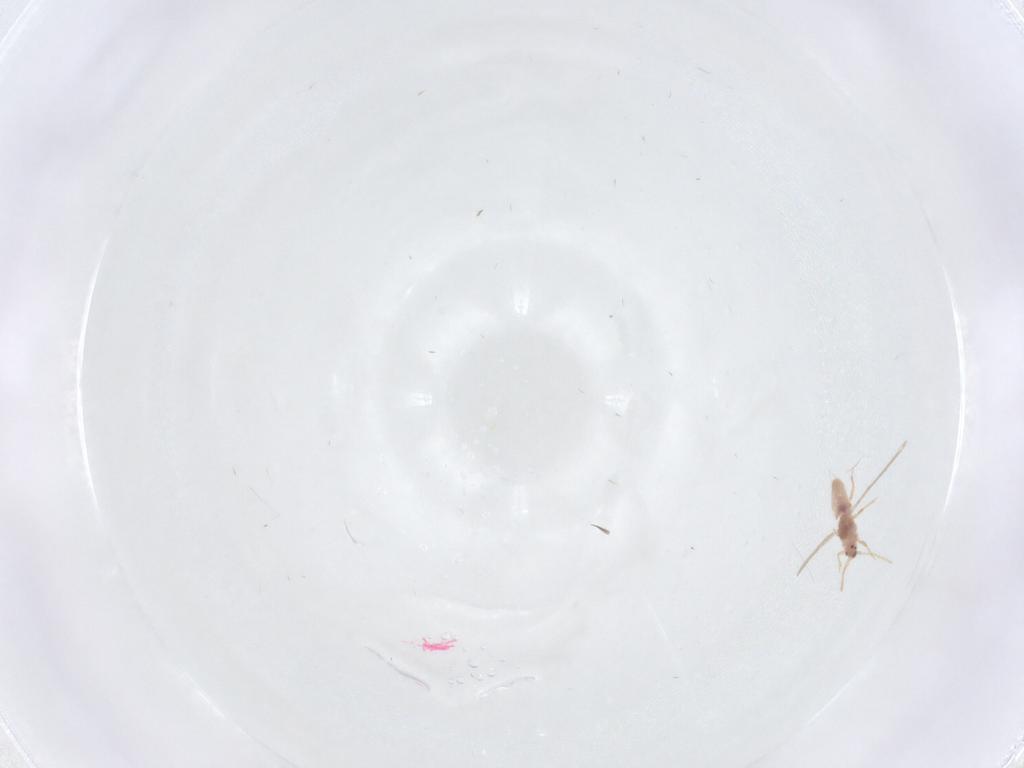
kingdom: Animalia
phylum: Arthropoda
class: Insecta
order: Hemiptera
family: Pseudococcidae
